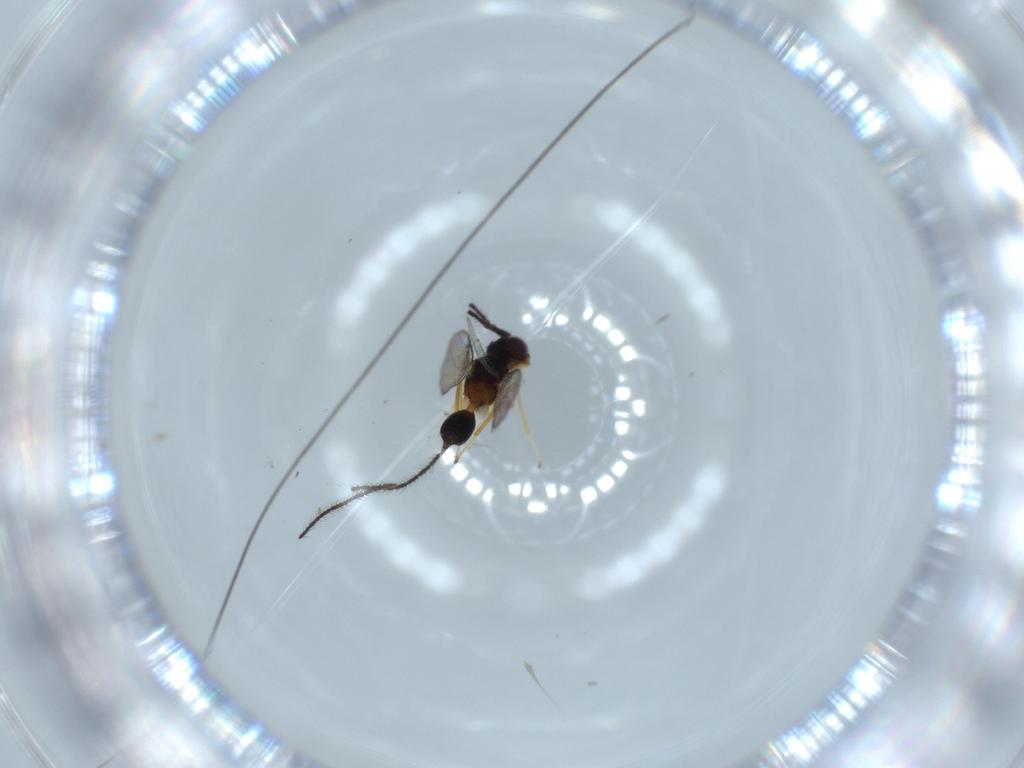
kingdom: Animalia
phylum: Arthropoda
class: Insecta
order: Hymenoptera
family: Diparidae
